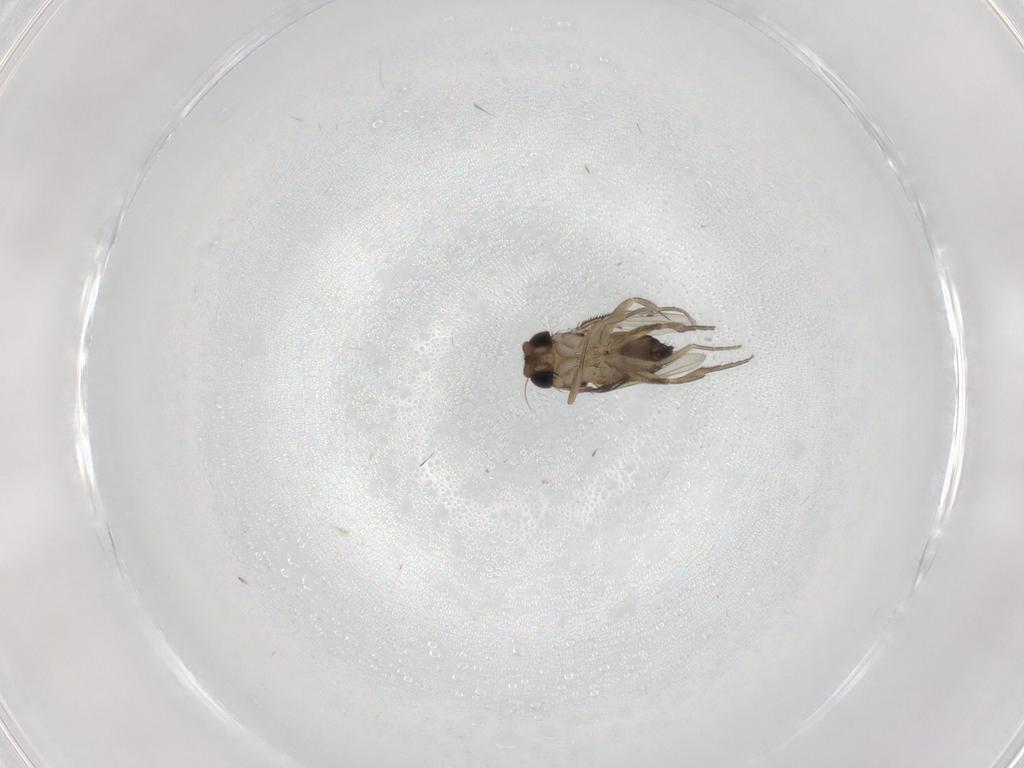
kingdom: Animalia
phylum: Arthropoda
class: Insecta
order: Diptera
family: Phoridae
